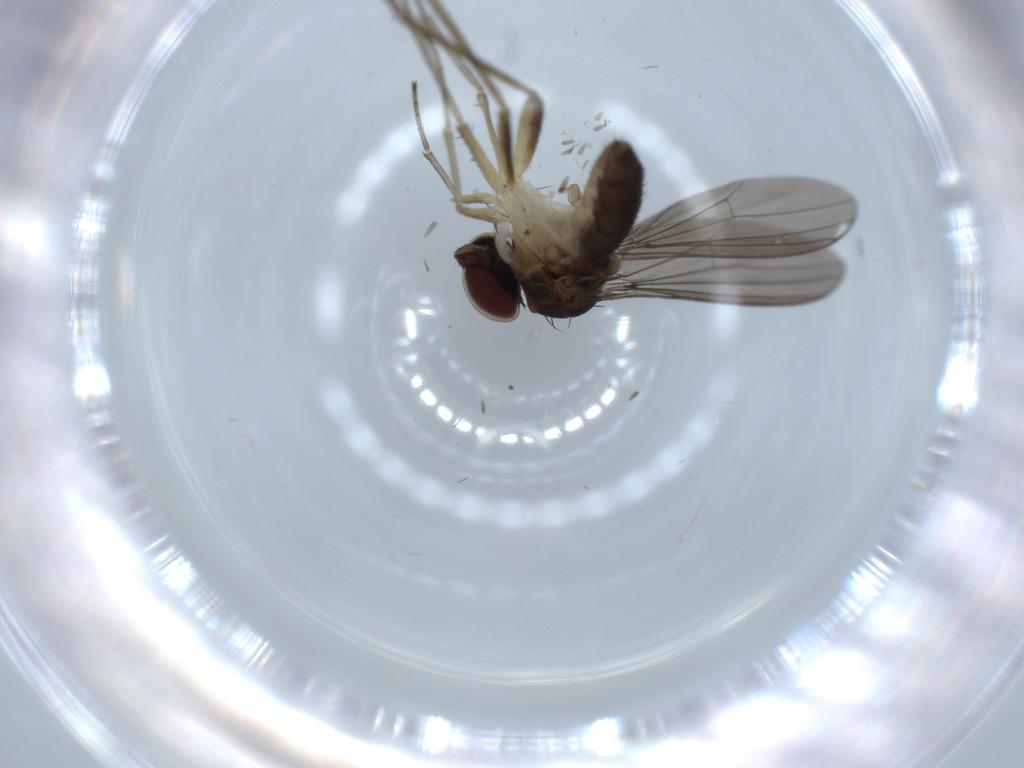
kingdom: Animalia
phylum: Arthropoda
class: Insecta
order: Diptera
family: Dolichopodidae
